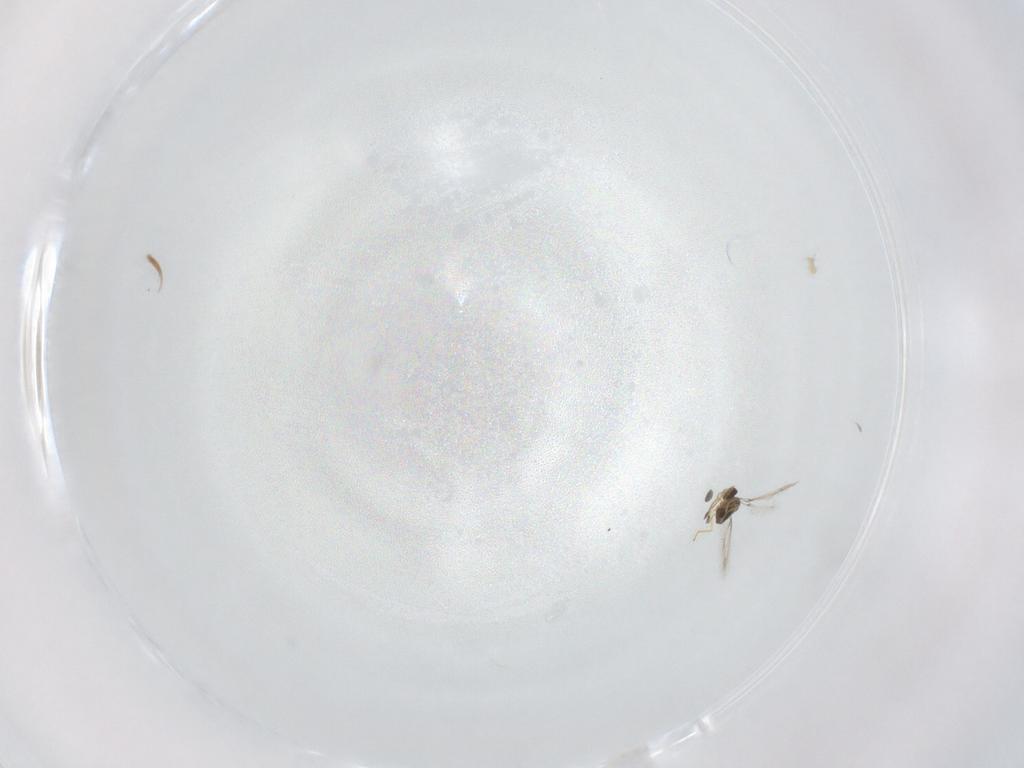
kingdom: Animalia
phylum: Arthropoda
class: Insecta
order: Hymenoptera
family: Mymaridae
